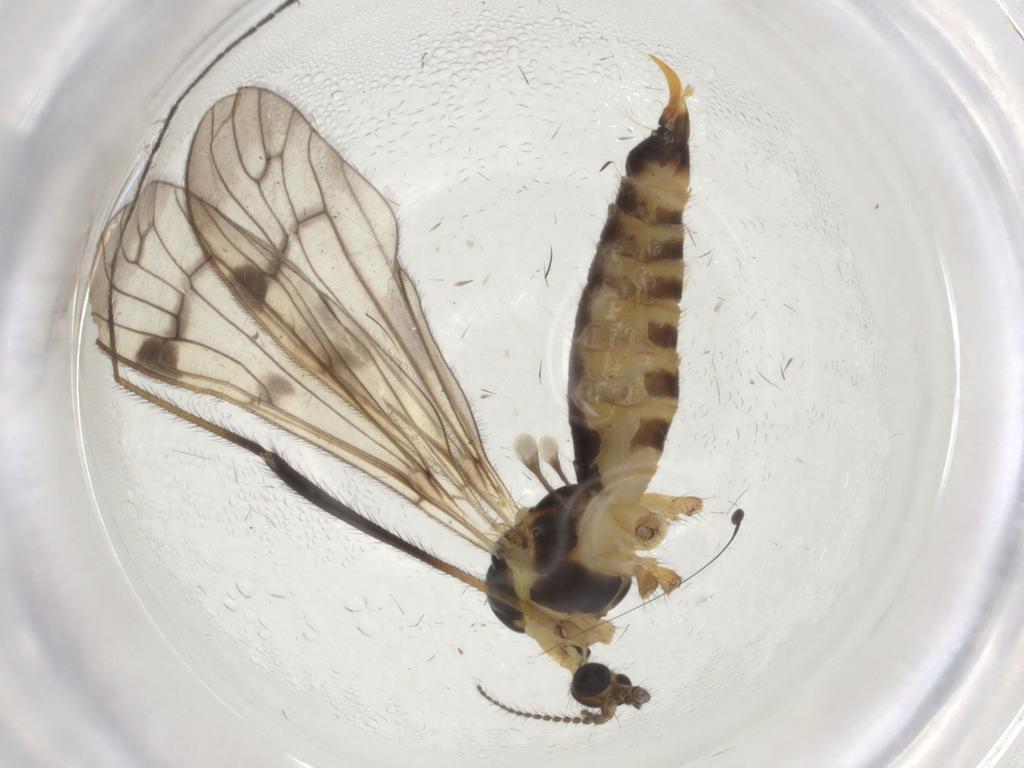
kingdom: Animalia
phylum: Arthropoda
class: Insecta
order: Diptera
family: Limoniidae
